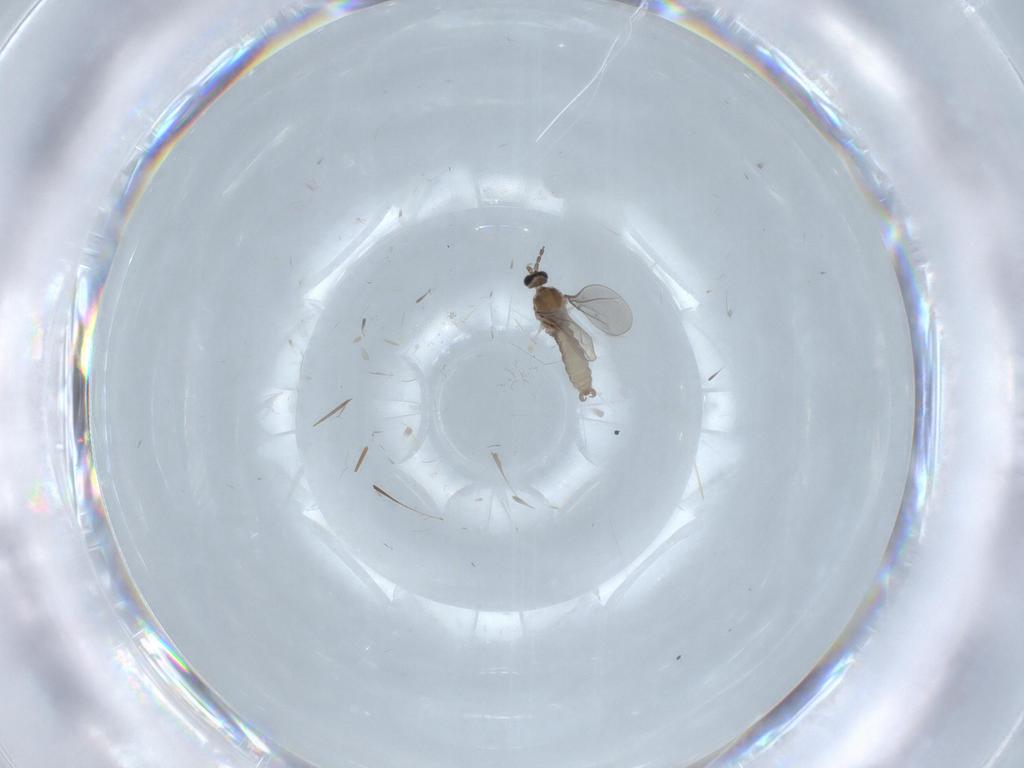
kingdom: Animalia
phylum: Arthropoda
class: Insecta
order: Diptera
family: Cecidomyiidae
